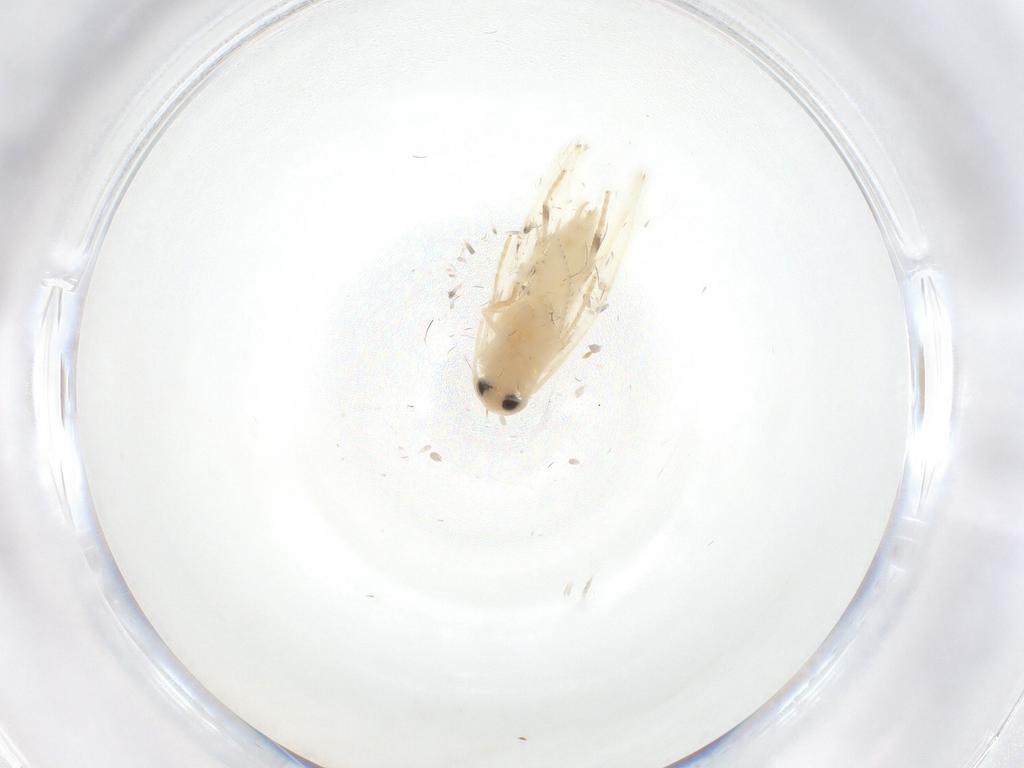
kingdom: Animalia
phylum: Arthropoda
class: Insecta
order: Lepidoptera
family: Geometridae
